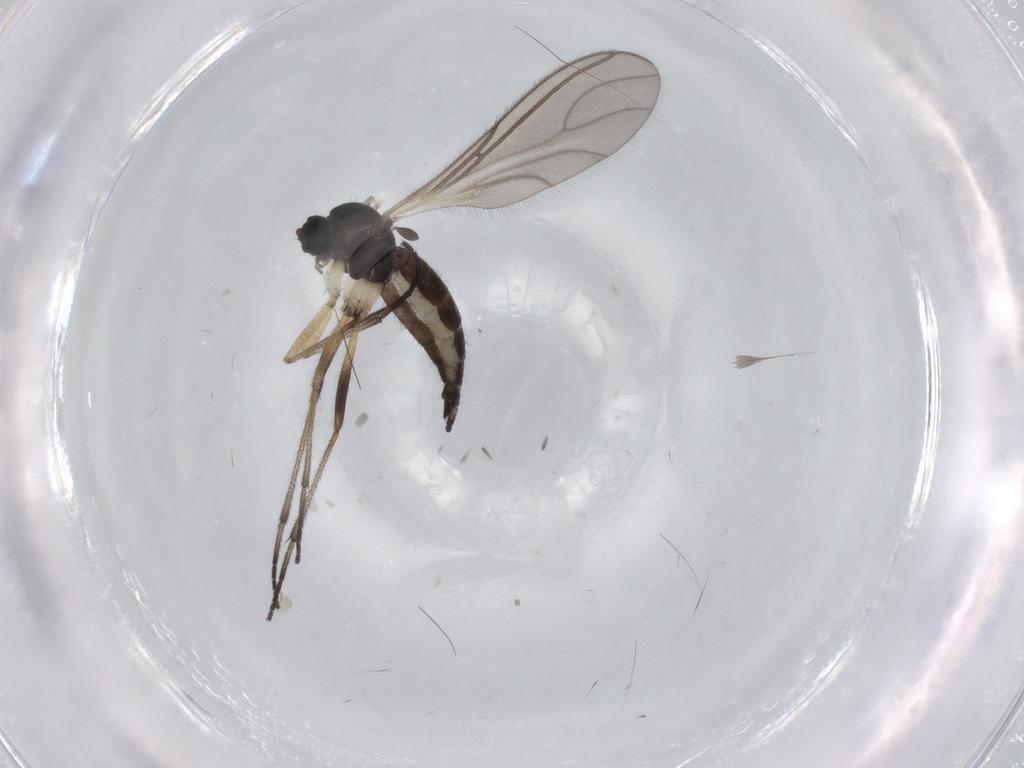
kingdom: Animalia
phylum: Arthropoda
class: Insecta
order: Diptera
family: Sciaridae
